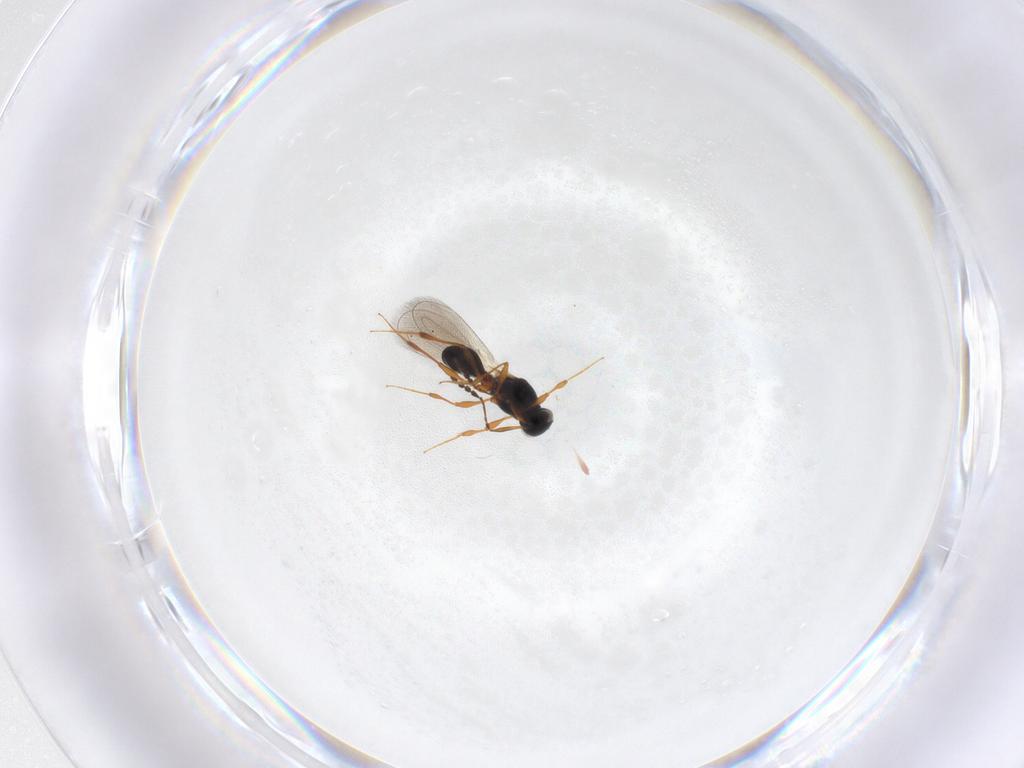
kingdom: Animalia
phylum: Arthropoda
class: Insecta
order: Hymenoptera
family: Platygastridae
